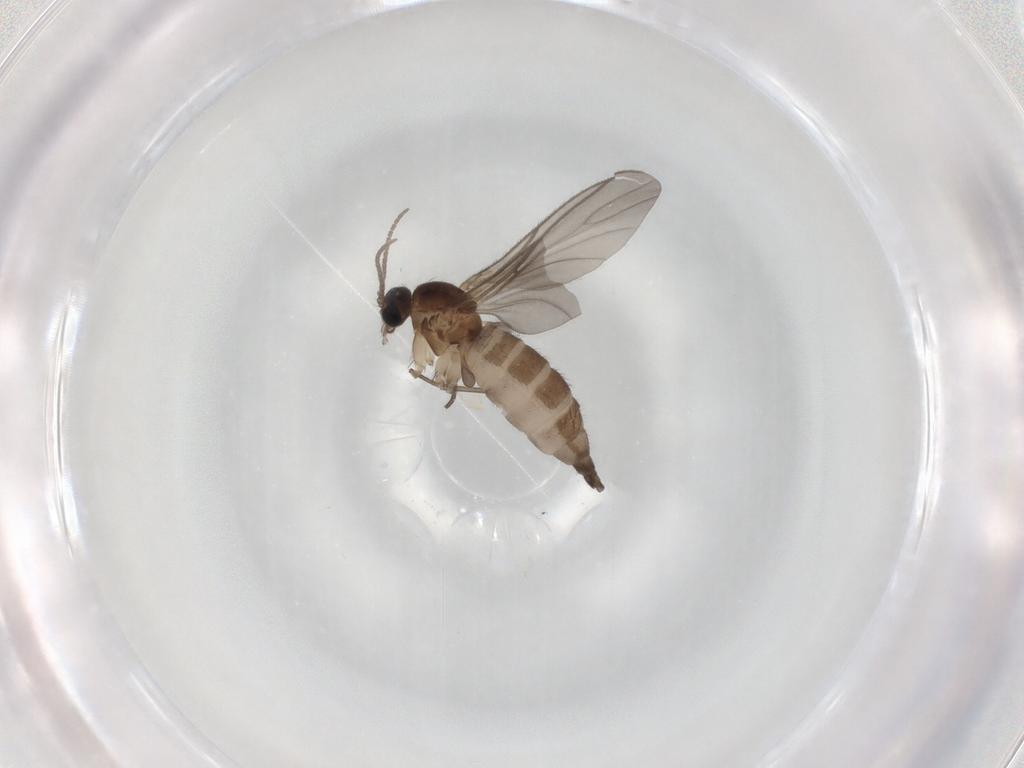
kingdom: Animalia
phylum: Arthropoda
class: Insecta
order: Diptera
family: Sciaridae
